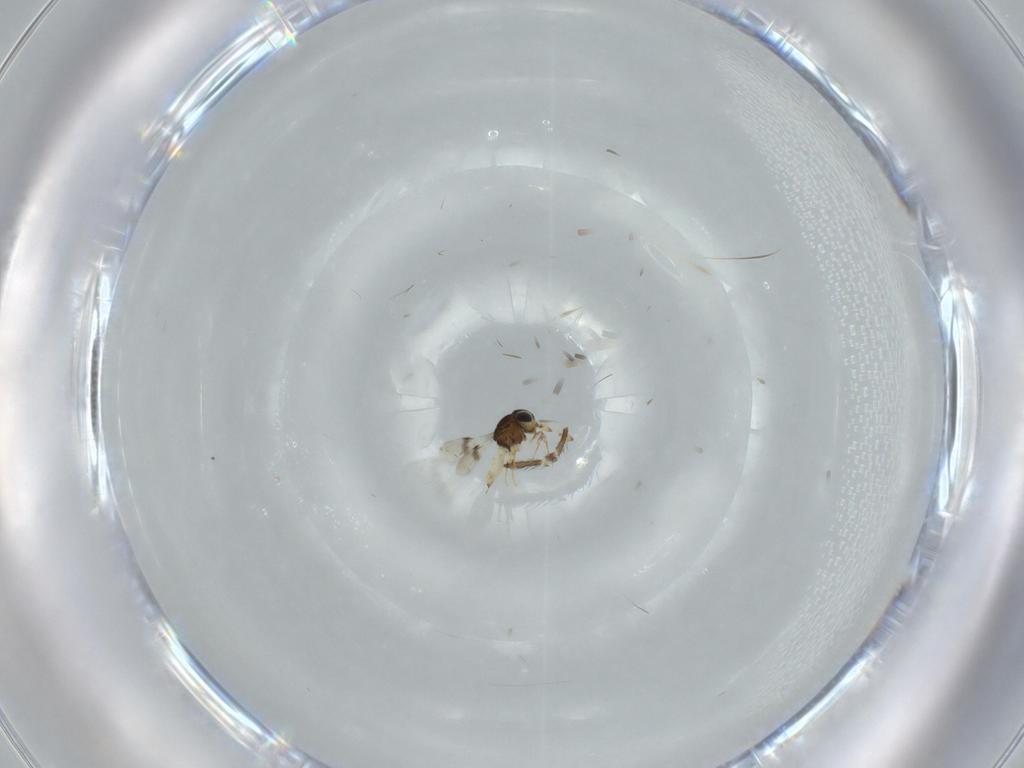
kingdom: Animalia
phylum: Arthropoda
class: Insecta
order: Hymenoptera
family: Scelionidae
